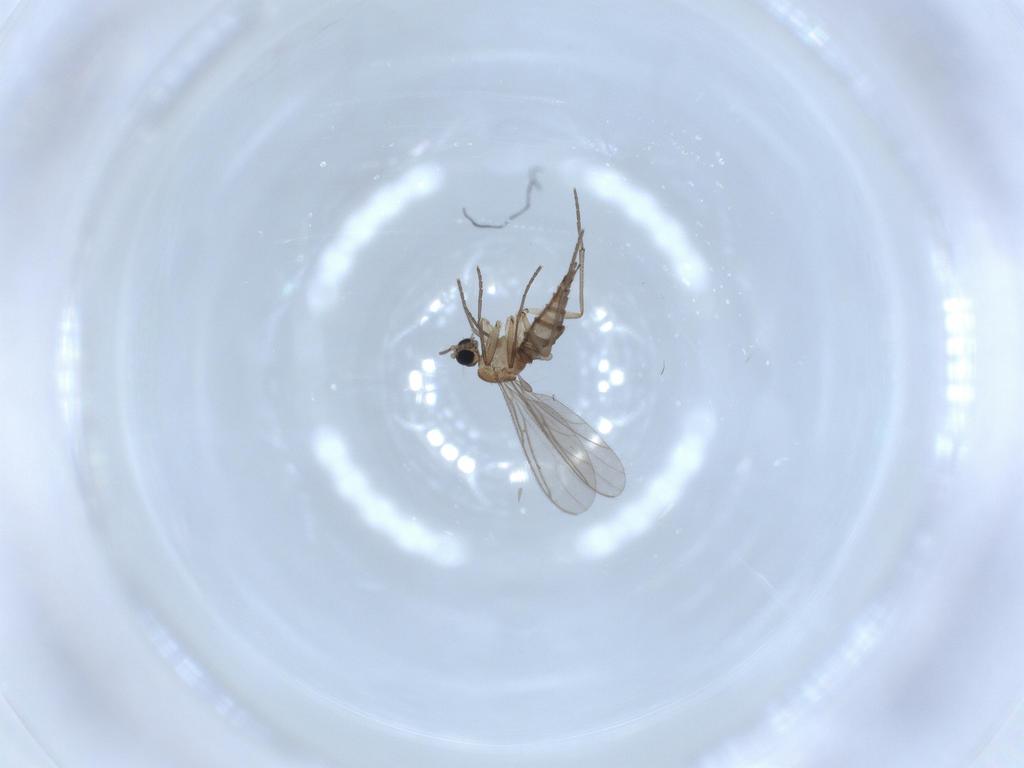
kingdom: Animalia
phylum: Arthropoda
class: Insecta
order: Diptera
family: Sciaridae
